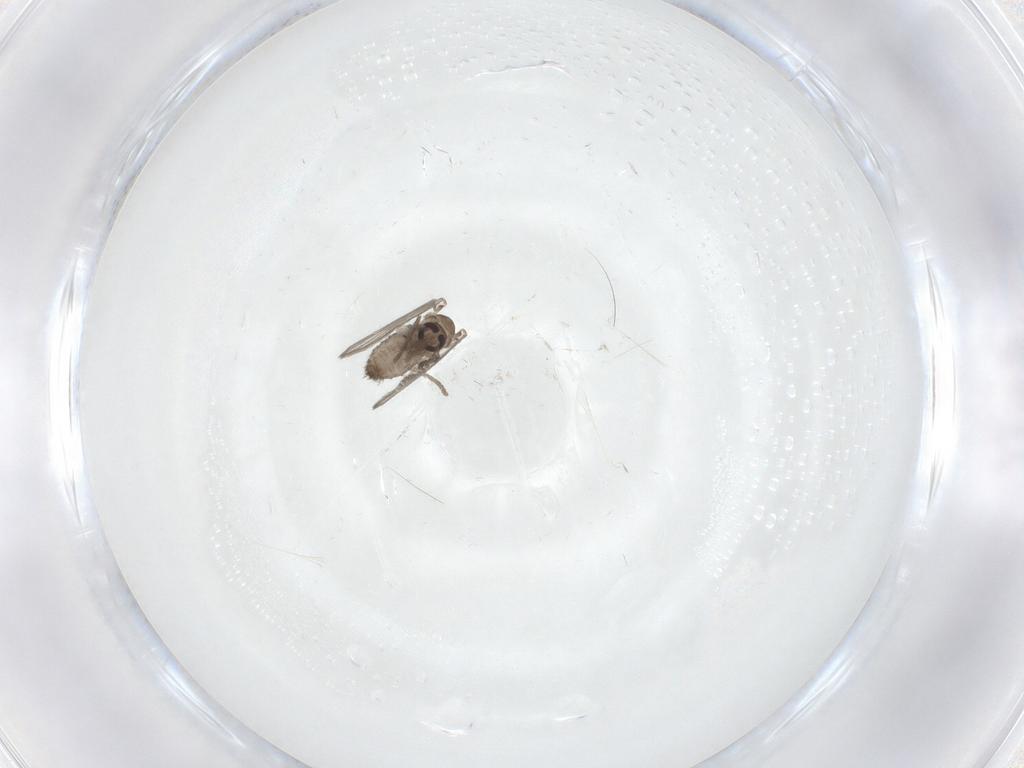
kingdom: Animalia
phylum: Arthropoda
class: Insecta
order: Diptera
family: Psychodidae
